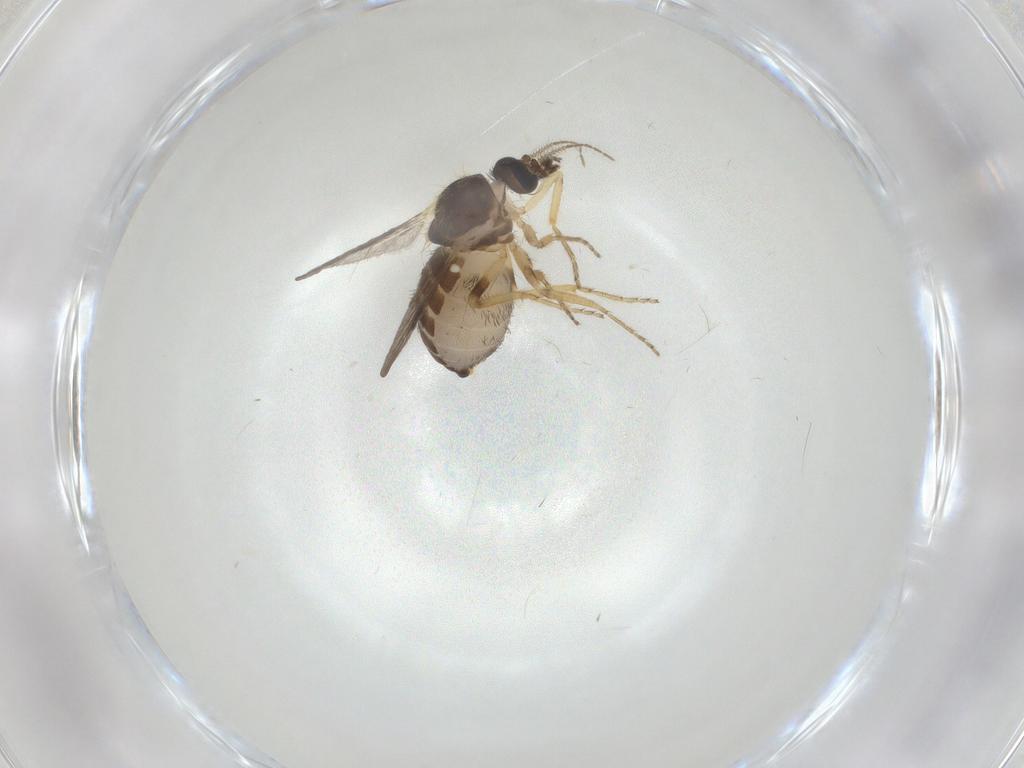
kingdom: Animalia
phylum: Arthropoda
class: Insecta
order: Diptera
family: Ceratopogonidae
